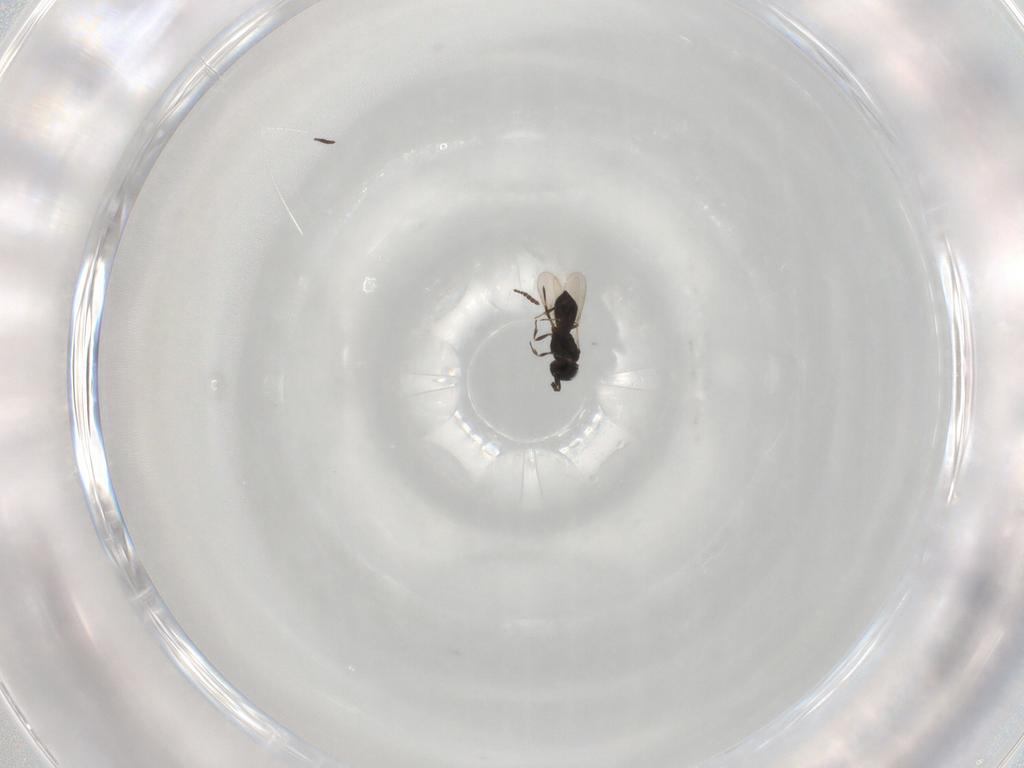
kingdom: Animalia
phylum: Arthropoda
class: Insecta
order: Hymenoptera
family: Scelionidae
